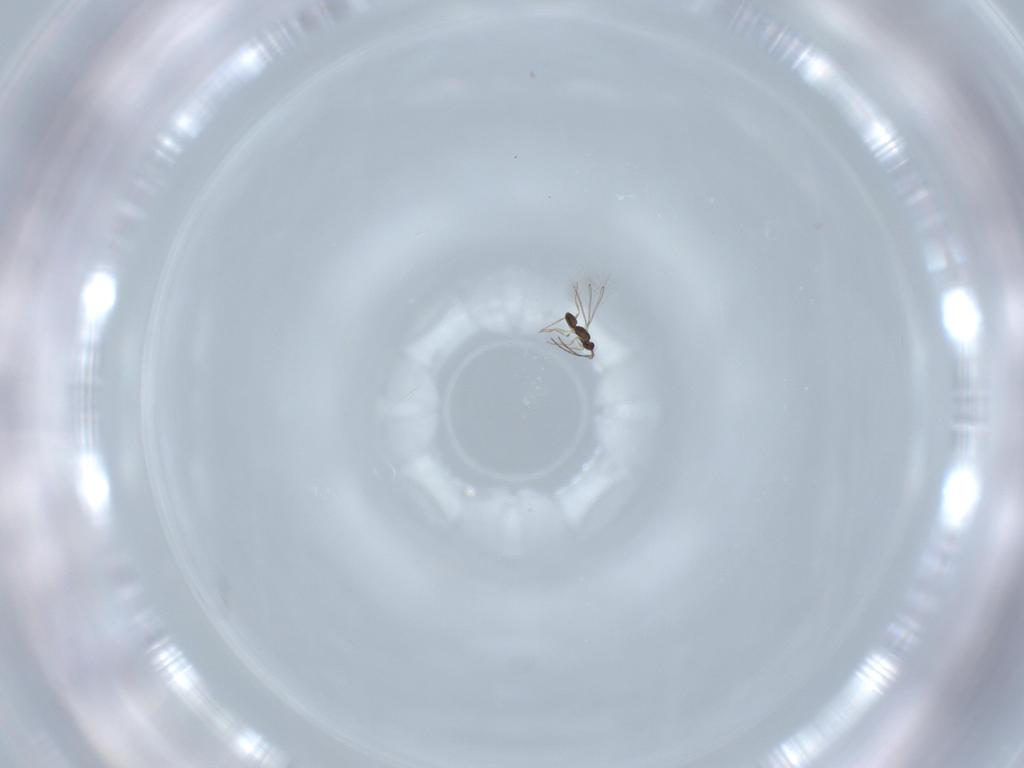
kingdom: Animalia
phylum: Arthropoda
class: Insecta
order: Hymenoptera
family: Mymaridae
